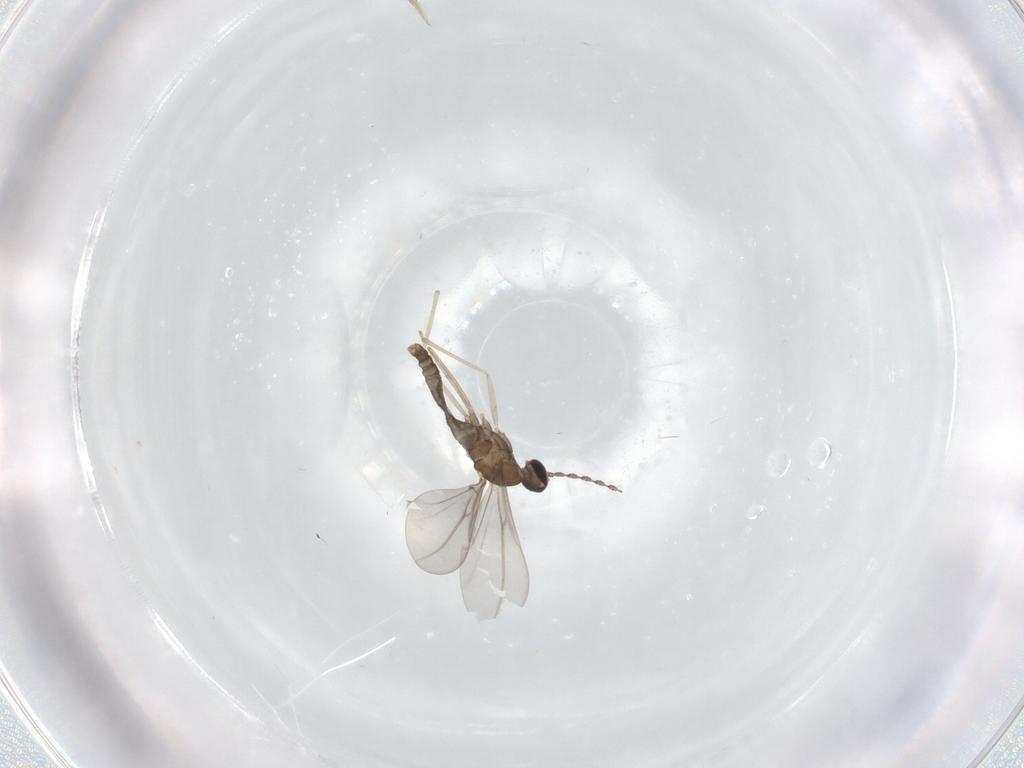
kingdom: Animalia
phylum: Arthropoda
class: Insecta
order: Diptera
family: Cecidomyiidae
